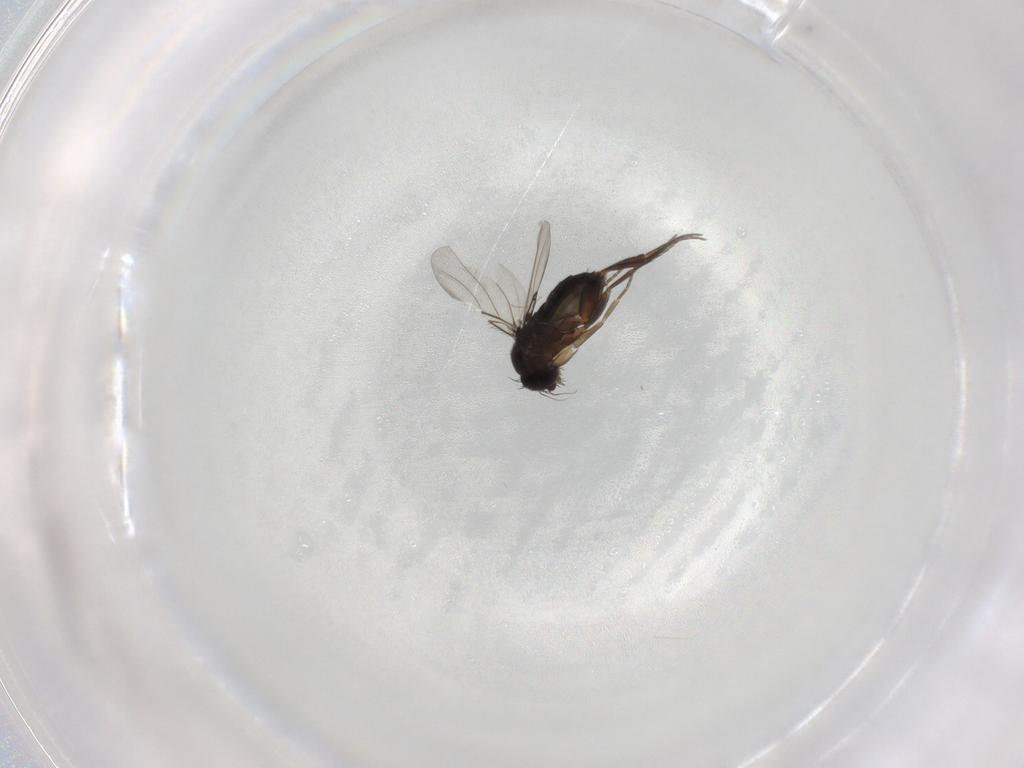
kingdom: Animalia
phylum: Arthropoda
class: Insecta
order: Diptera
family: Phoridae
